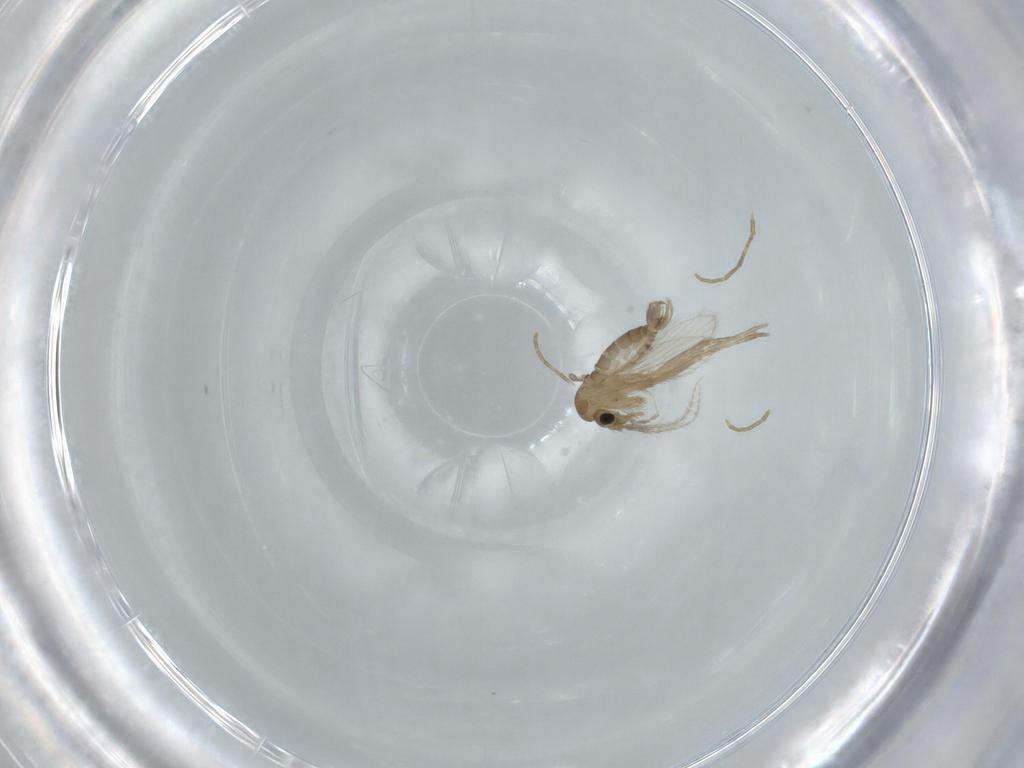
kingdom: Animalia
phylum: Arthropoda
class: Insecta
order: Diptera
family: Psychodidae
